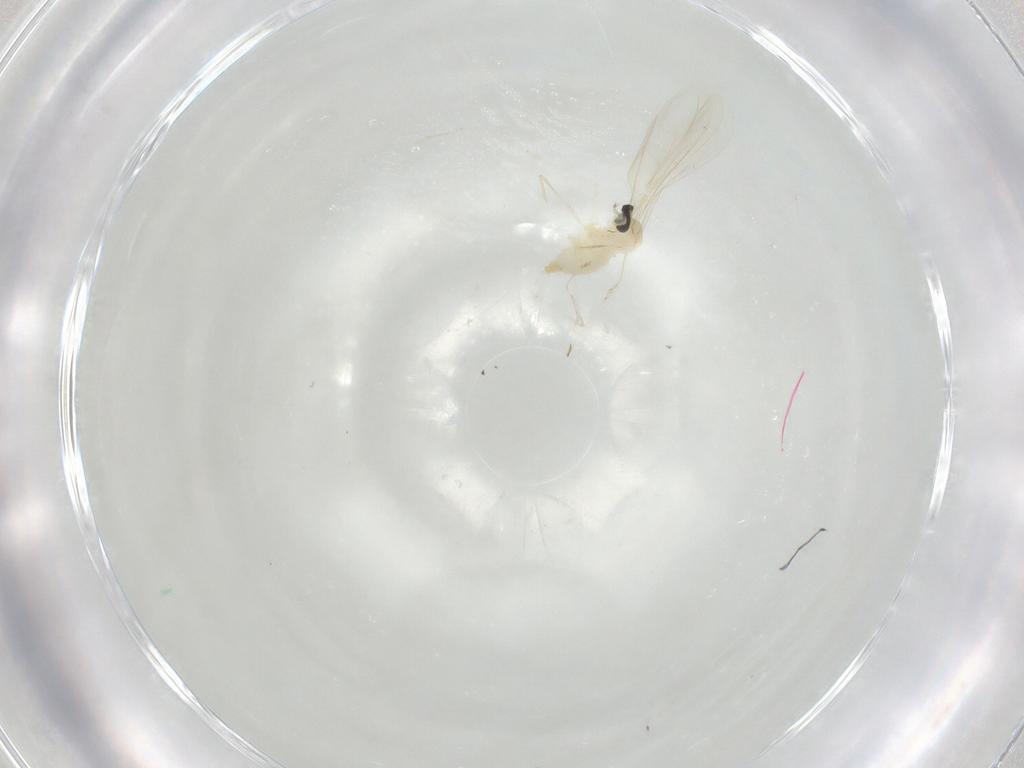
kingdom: Animalia
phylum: Arthropoda
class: Insecta
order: Diptera
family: Cecidomyiidae
